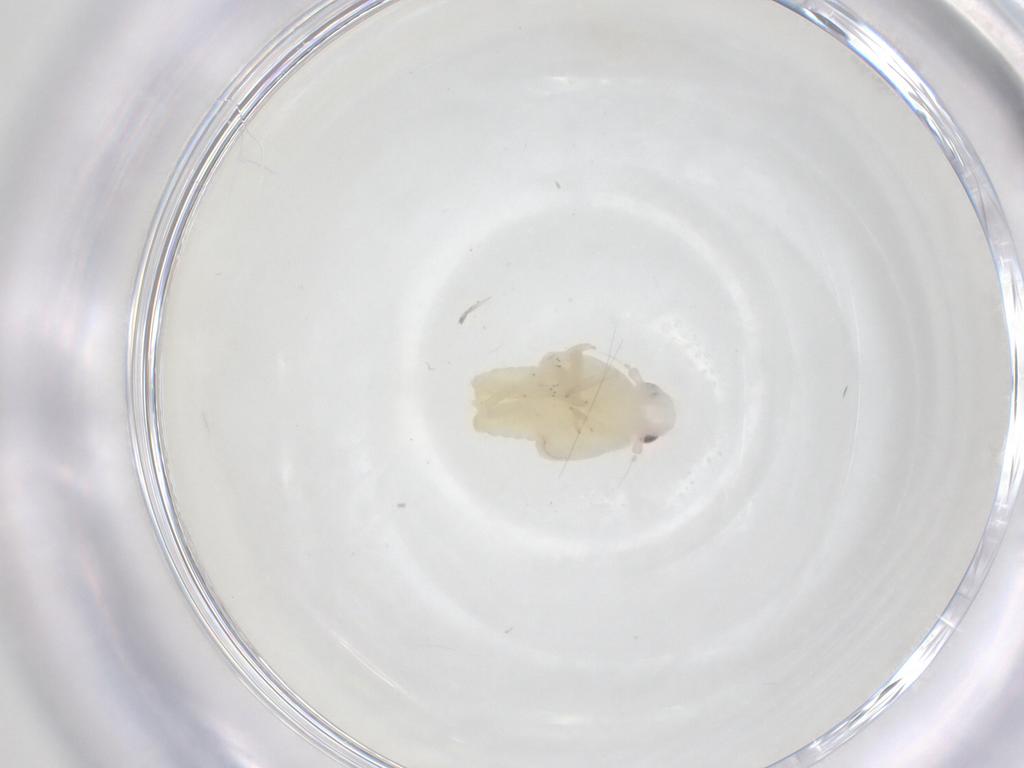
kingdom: Animalia
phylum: Arthropoda
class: Insecta
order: Hemiptera
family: Flatidae
